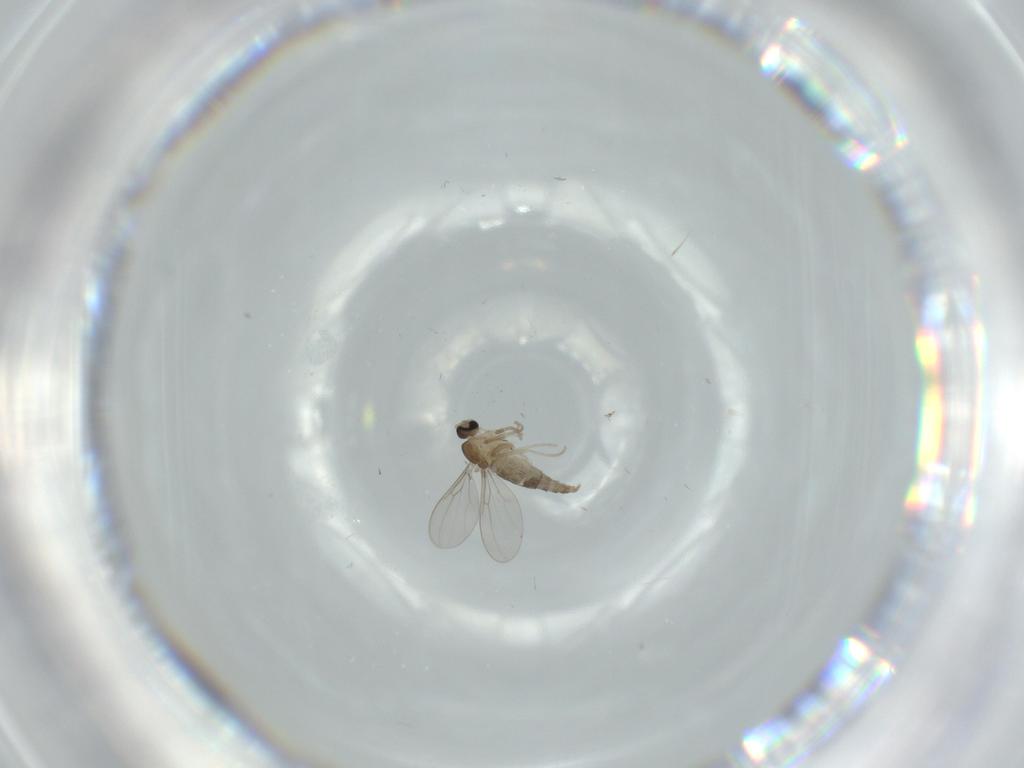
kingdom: Animalia
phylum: Arthropoda
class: Insecta
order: Diptera
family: Cecidomyiidae
